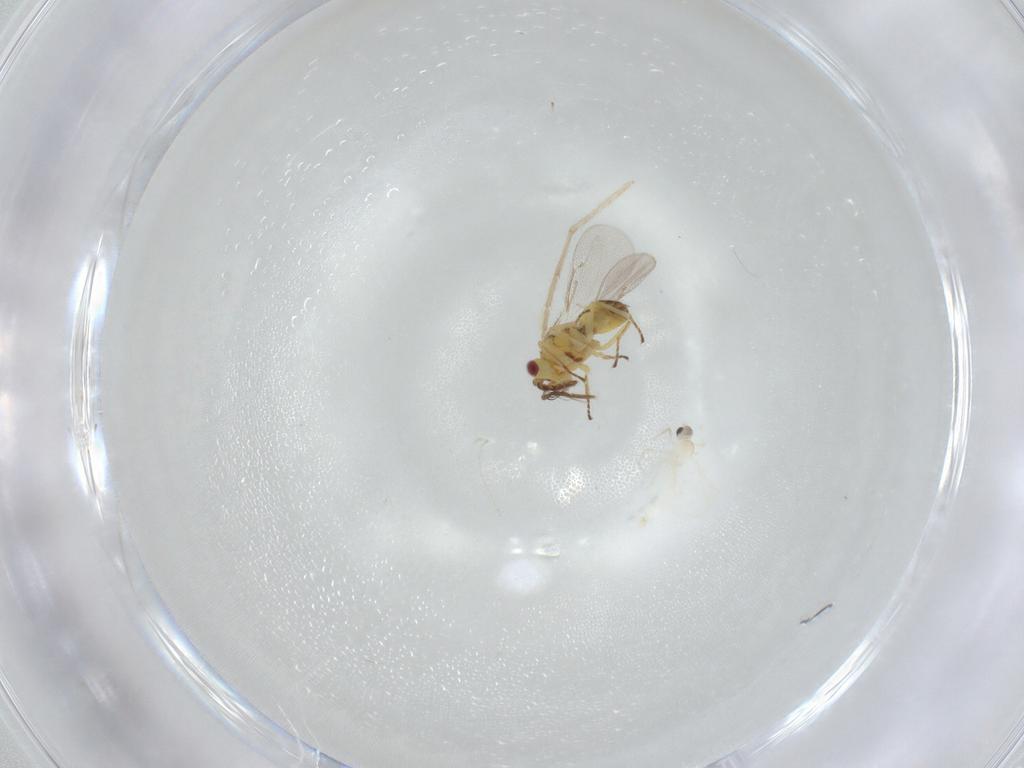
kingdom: Animalia
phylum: Arthropoda
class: Insecta
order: Hymenoptera
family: Eulophidae
